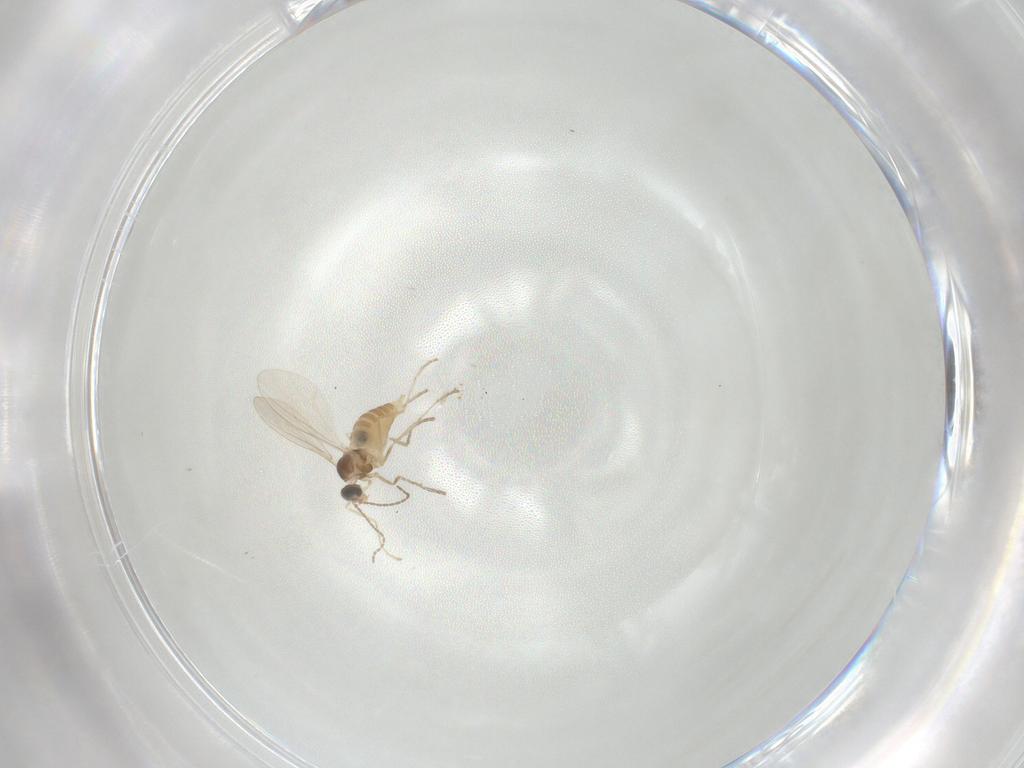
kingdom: Animalia
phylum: Arthropoda
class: Insecta
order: Diptera
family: Cecidomyiidae
